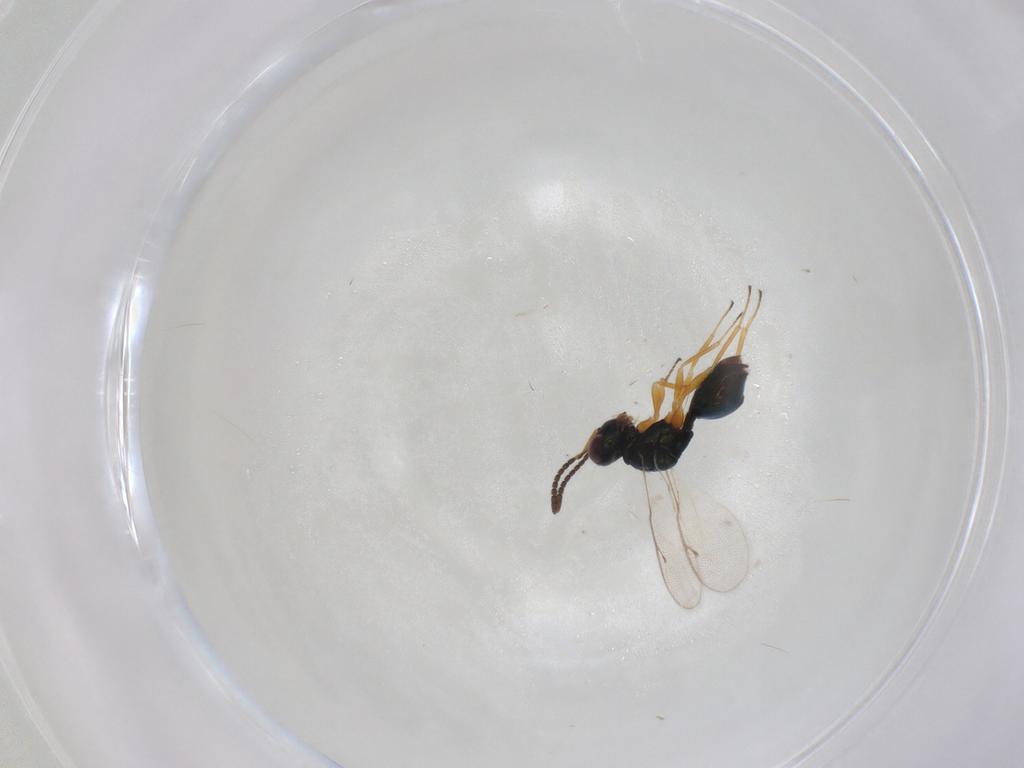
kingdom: Animalia
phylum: Arthropoda
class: Insecta
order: Hymenoptera
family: Pteromalidae
